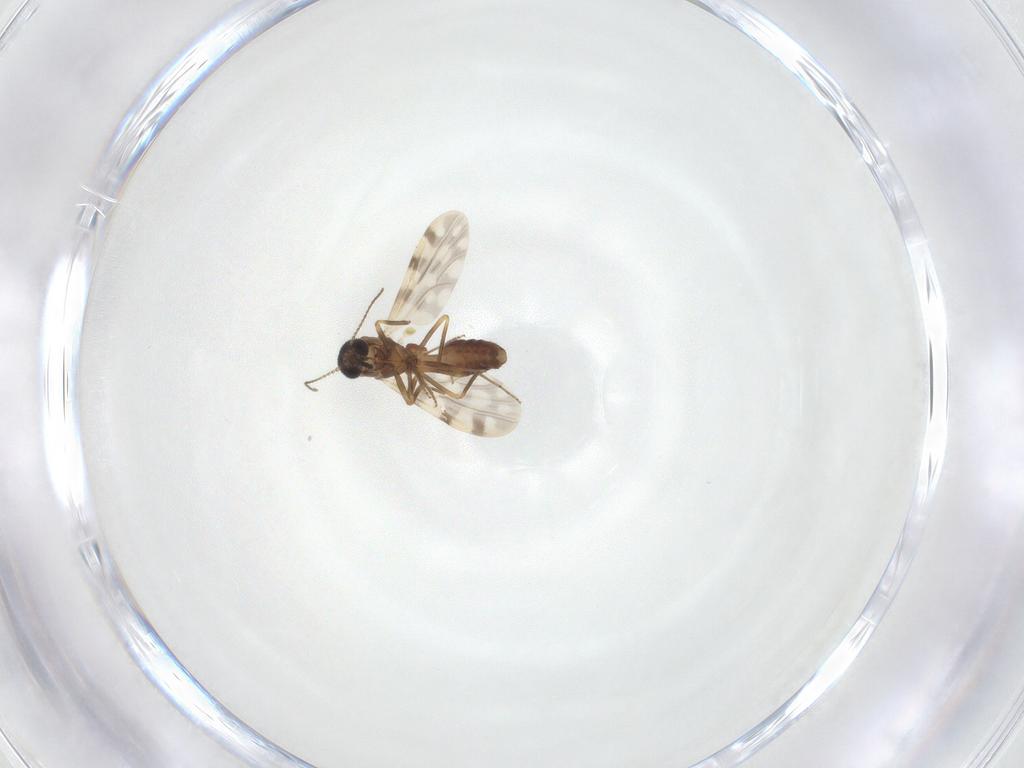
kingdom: Animalia
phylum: Arthropoda
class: Insecta
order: Diptera
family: Ceratopogonidae
